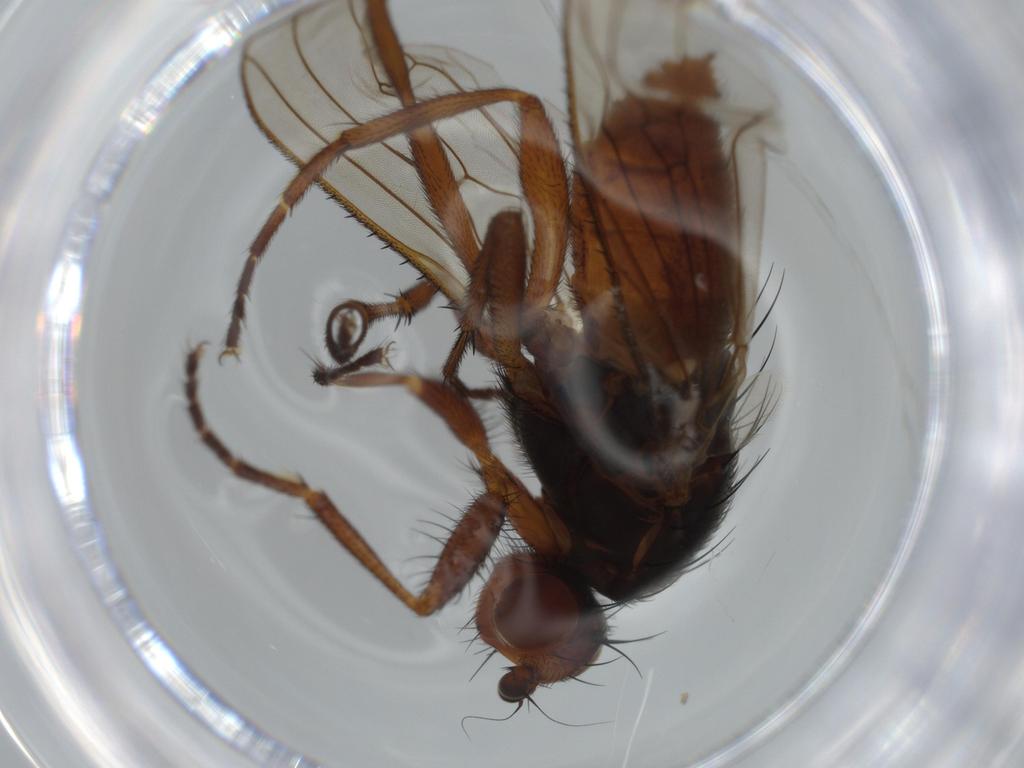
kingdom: Animalia
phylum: Arthropoda
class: Insecta
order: Diptera
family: Heleomyzidae
